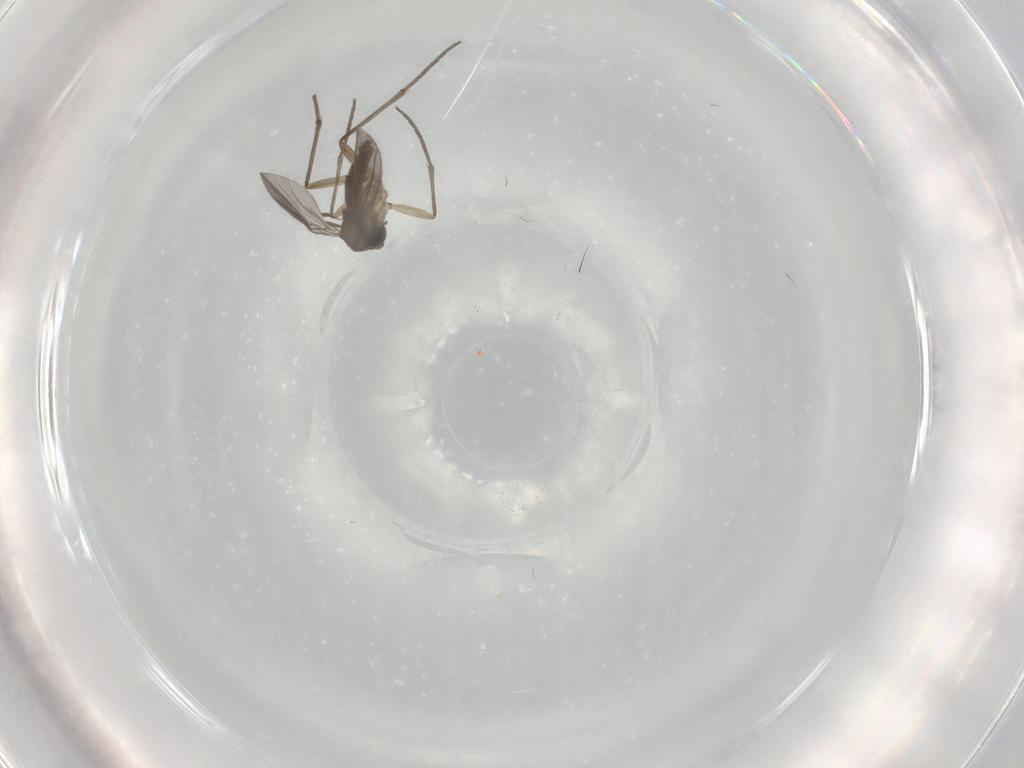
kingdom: Animalia
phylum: Arthropoda
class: Insecta
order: Diptera
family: Sciaridae
